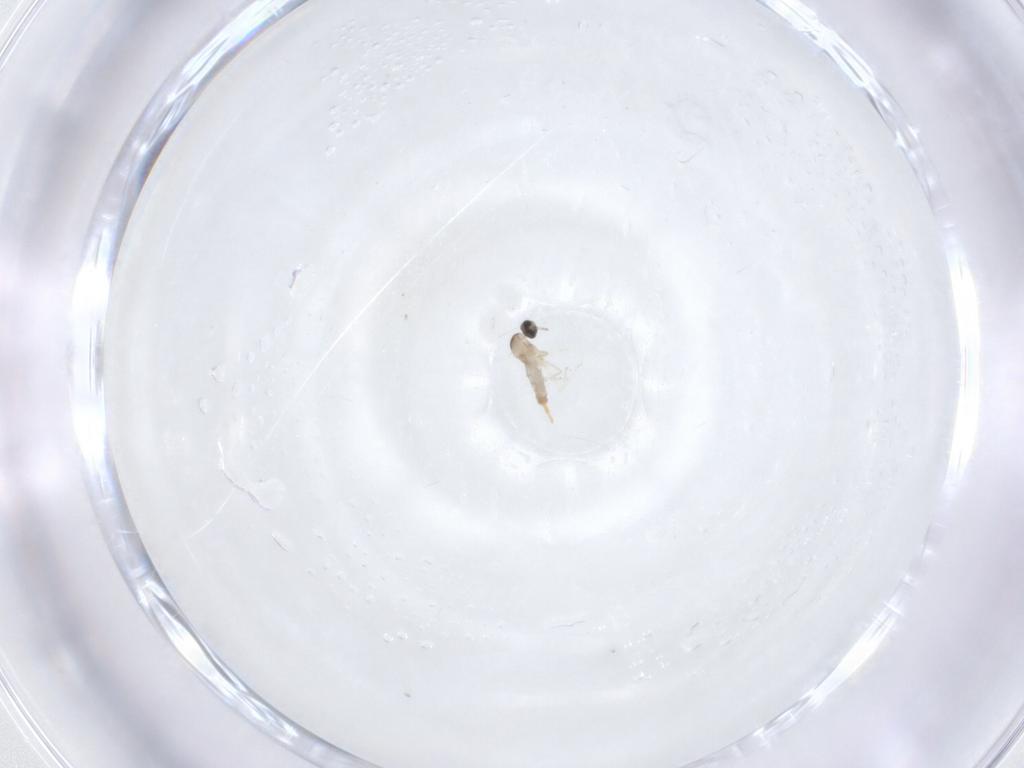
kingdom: Animalia
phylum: Arthropoda
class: Insecta
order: Diptera
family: Cecidomyiidae
